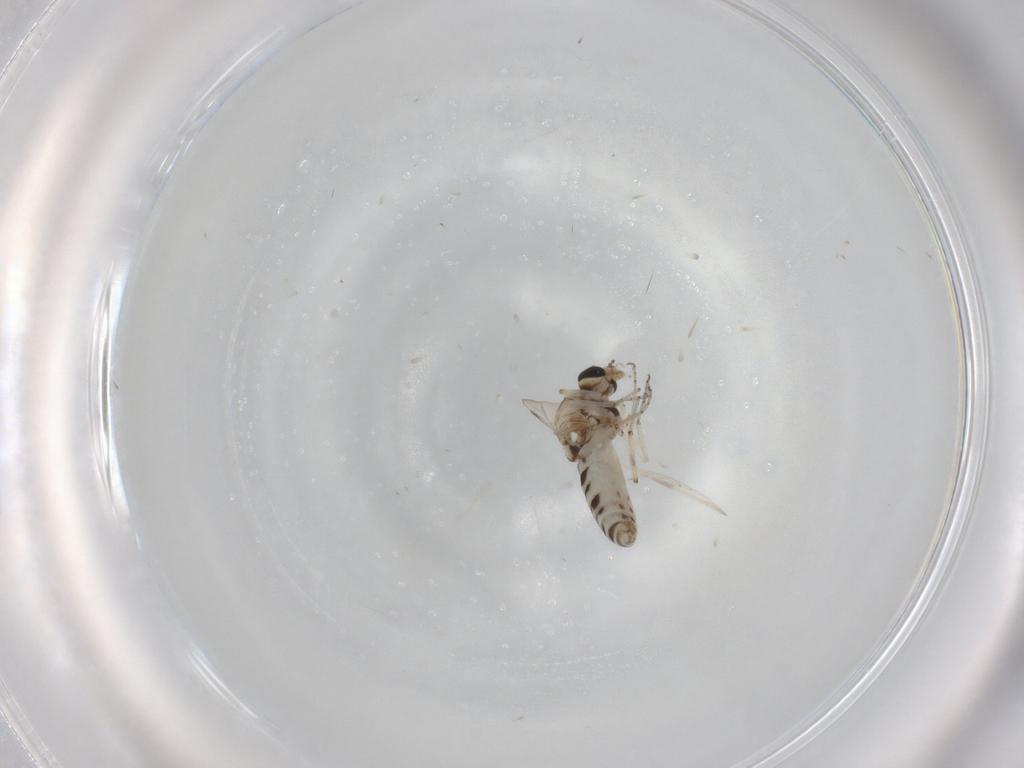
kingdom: Animalia
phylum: Arthropoda
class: Insecta
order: Diptera
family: Ceratopogonidae
